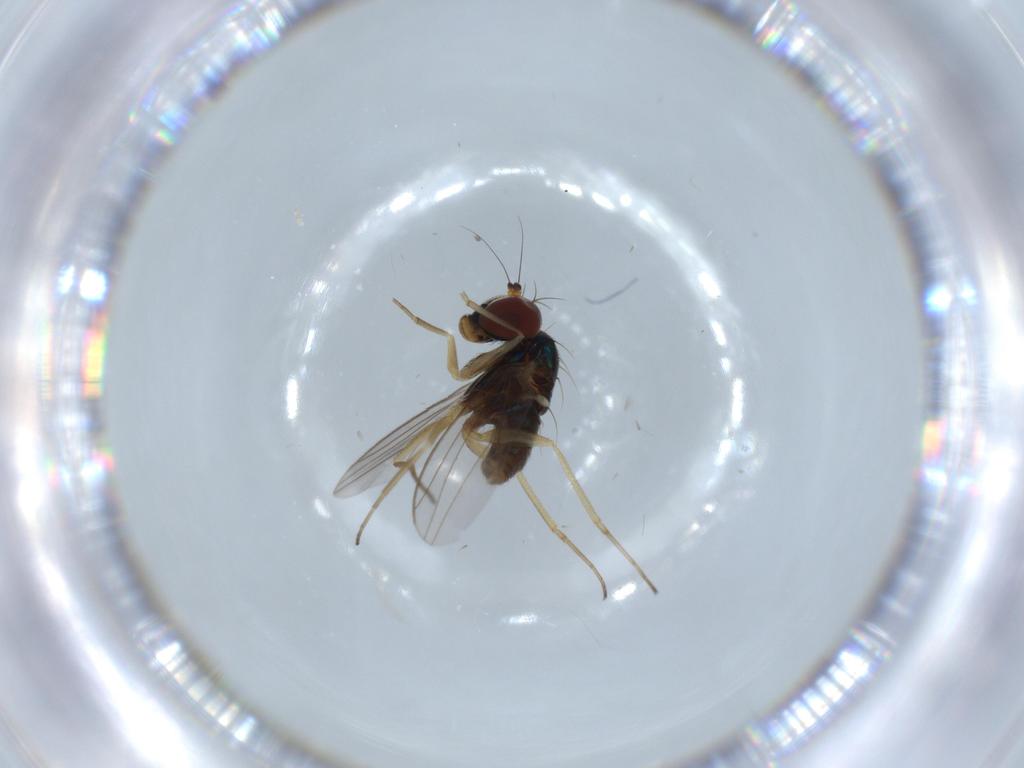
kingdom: Animalia
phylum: Arthropoda
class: Insecta
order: Diptera
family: Dolichopodidae
